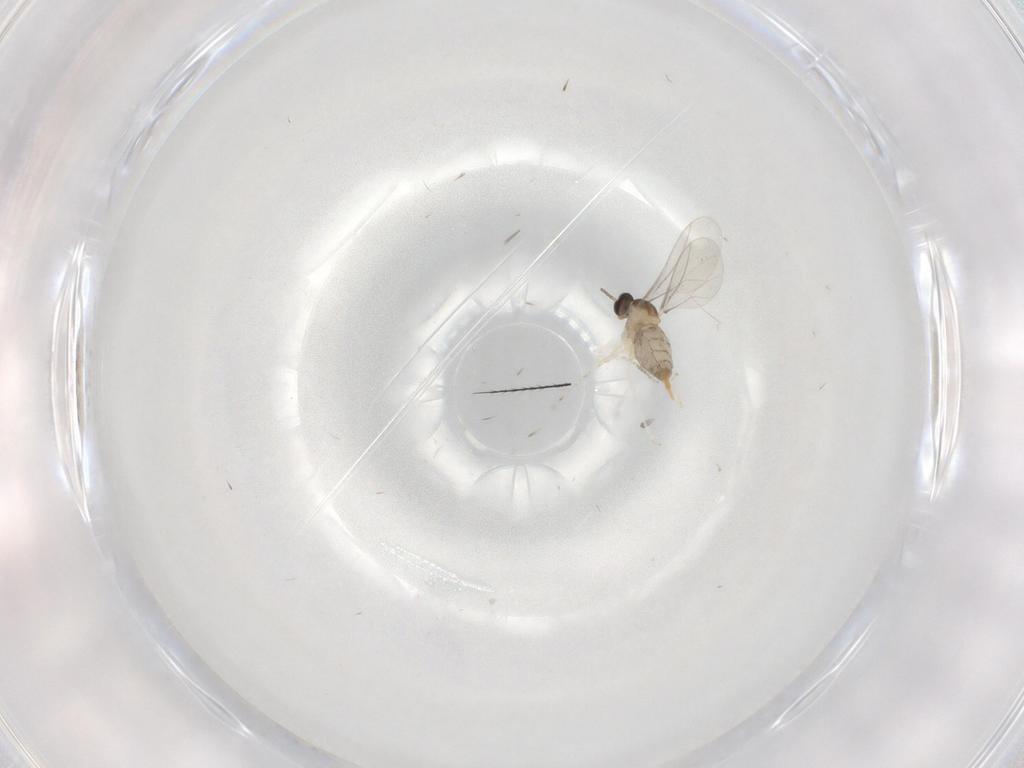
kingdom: Animalia
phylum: Arthropoda
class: Insecta
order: Diptera
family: Cecidomyiidae
